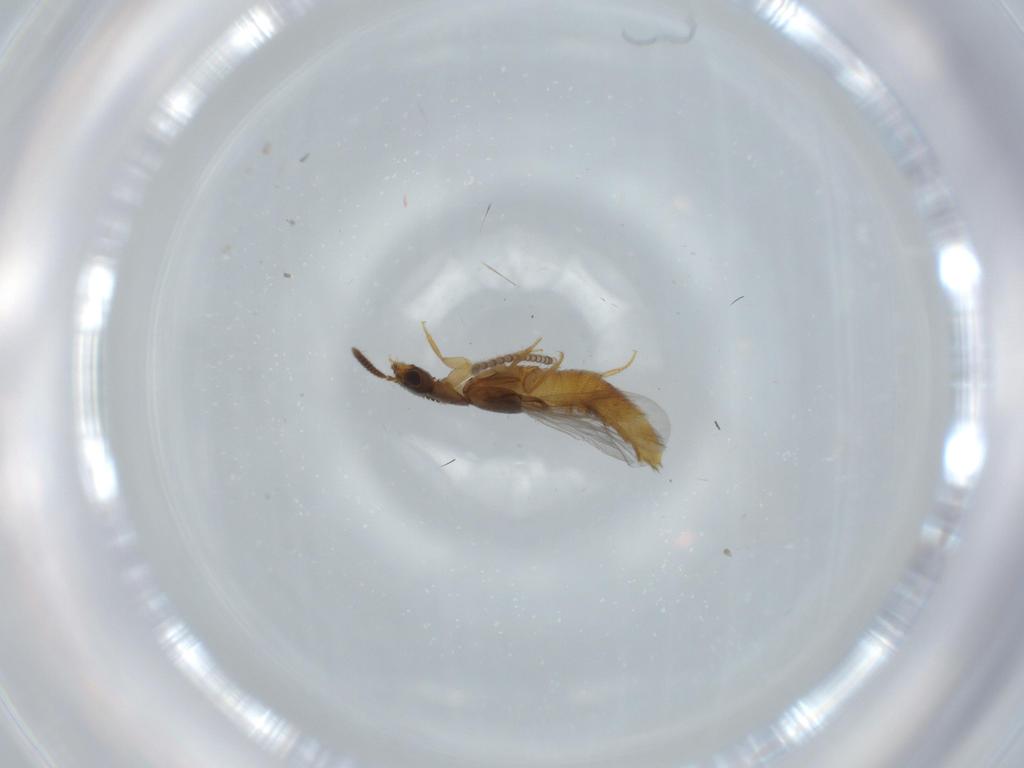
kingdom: Animalia
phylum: Arthropoda
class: Insecta
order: Coleoptera
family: Staphylinidae
